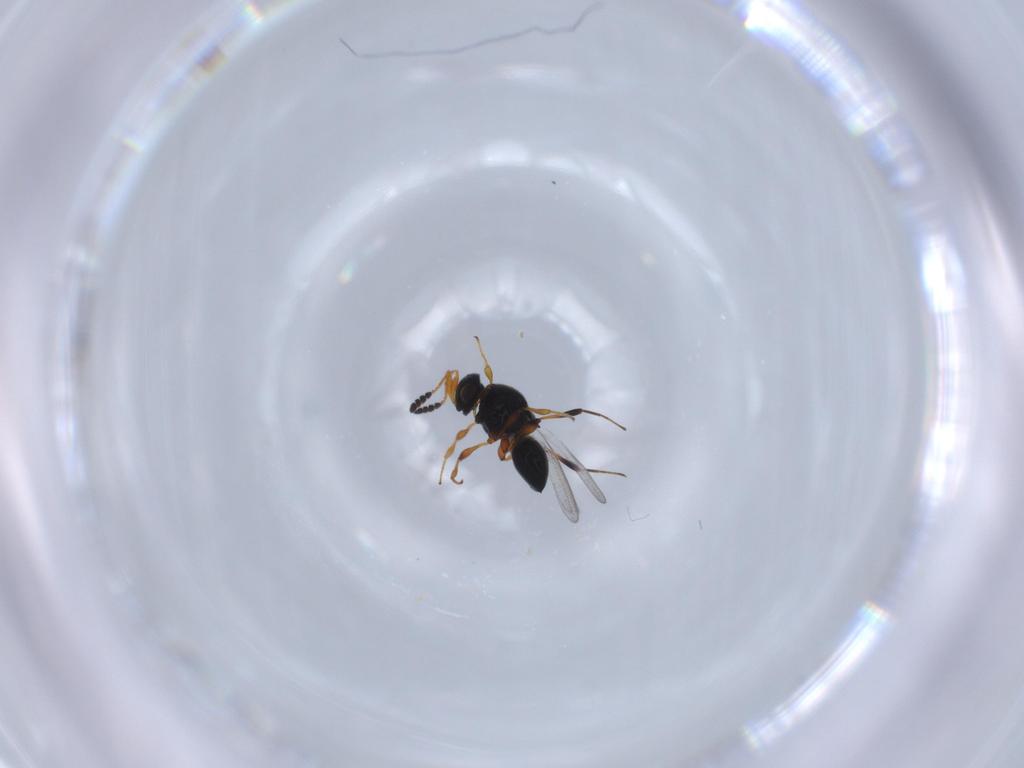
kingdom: Animalia
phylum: Arthropoda
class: Insecta
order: Hymenoptera
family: Platygastridae
